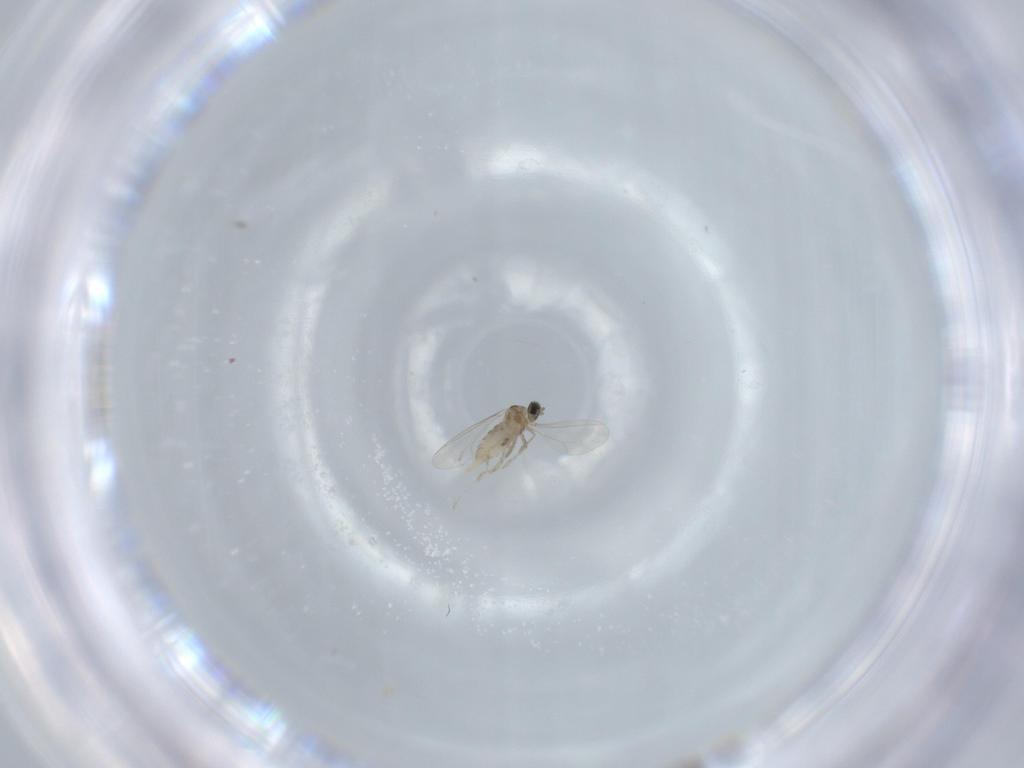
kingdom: Animalia
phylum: Arthropoda
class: Insecta
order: Diptera
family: Cecidomyiidae
